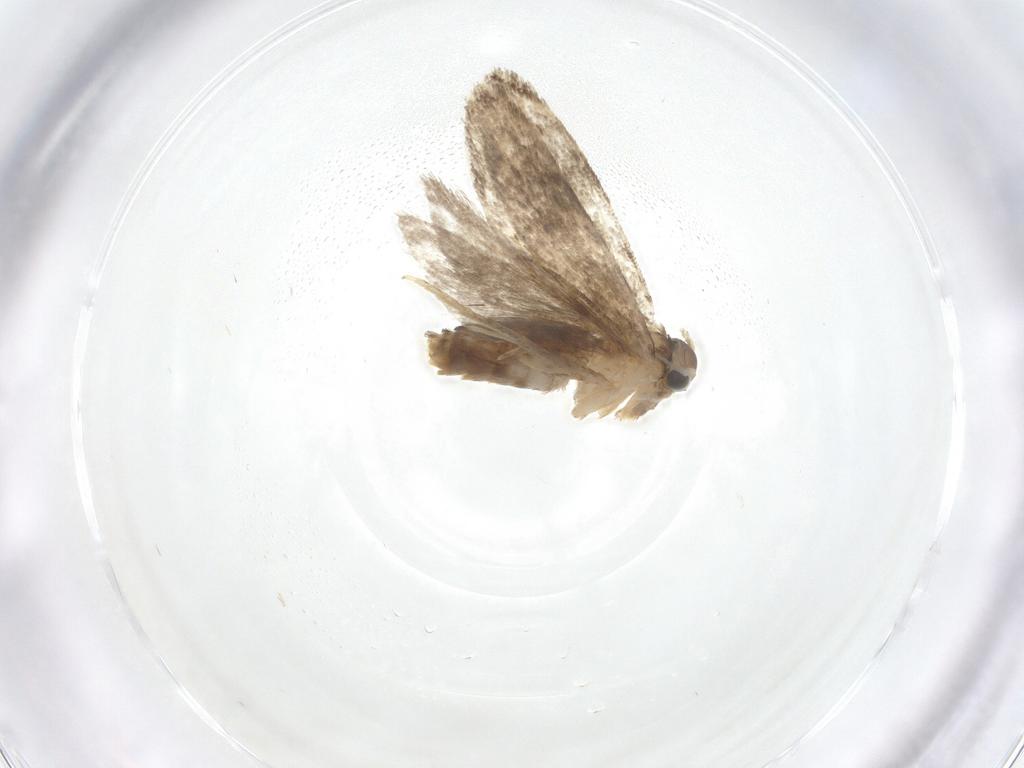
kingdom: Animalia
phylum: Arthropoda
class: Insecta
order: Lepidoptera
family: Tineidae
